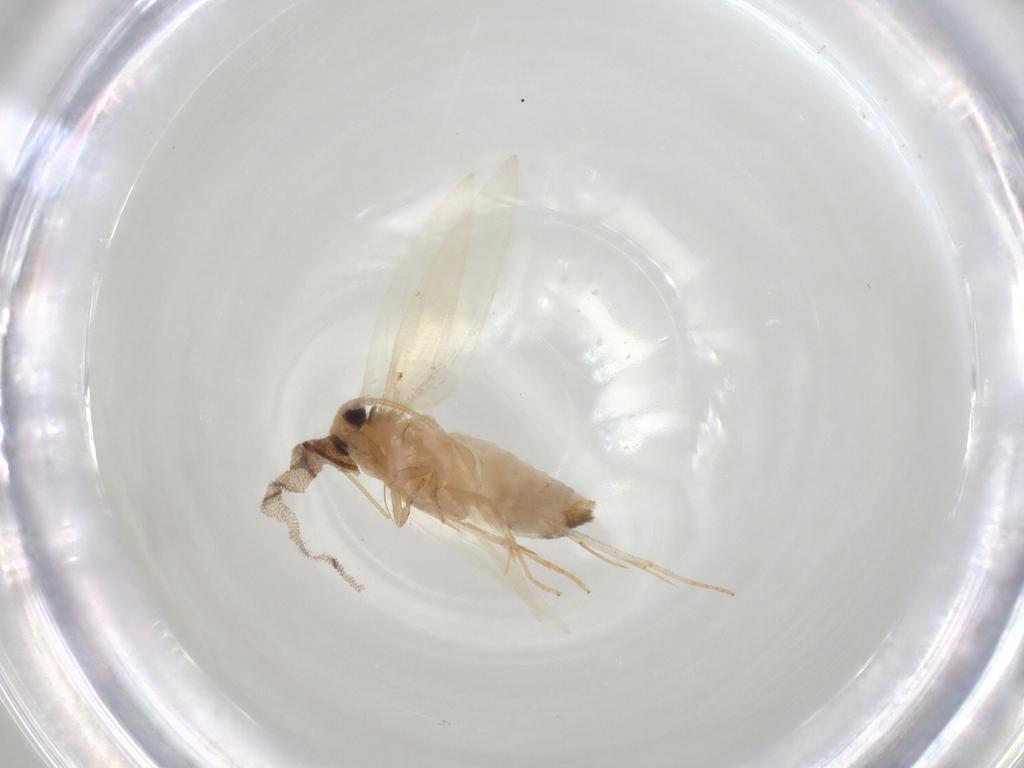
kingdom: Animalia
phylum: Arthropoda
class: Insecta
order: Lepidoptera
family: Nepticulidae
